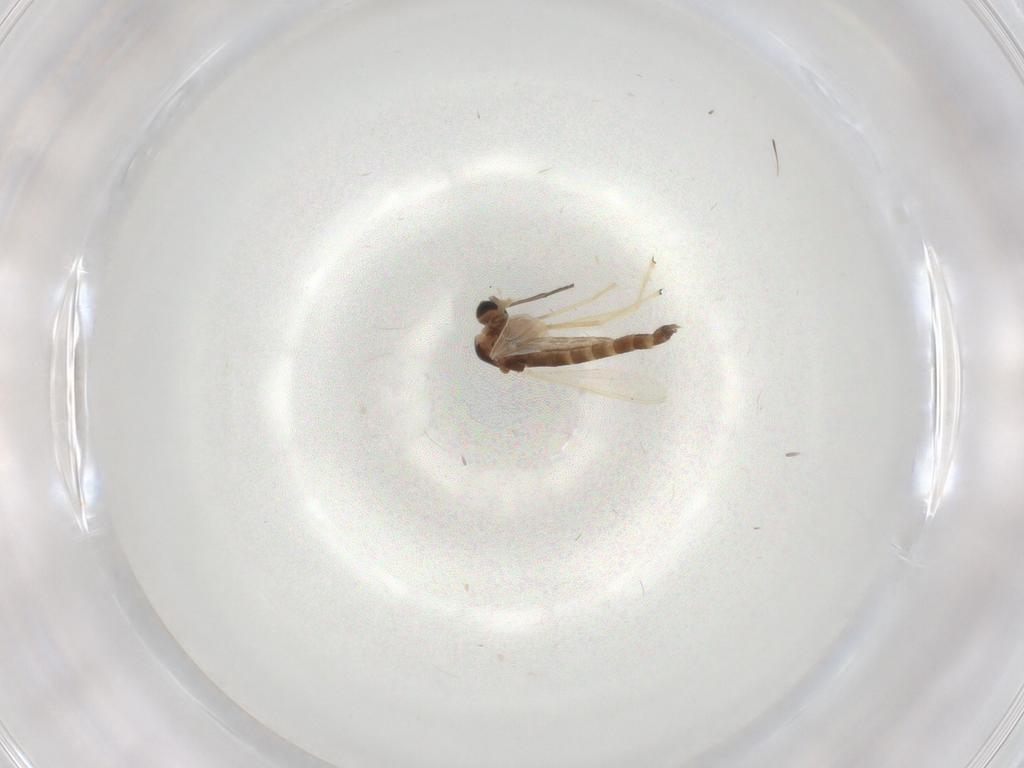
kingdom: Animalia
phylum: Arthropoda
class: Insecta
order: Diptera
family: Chironomidae
